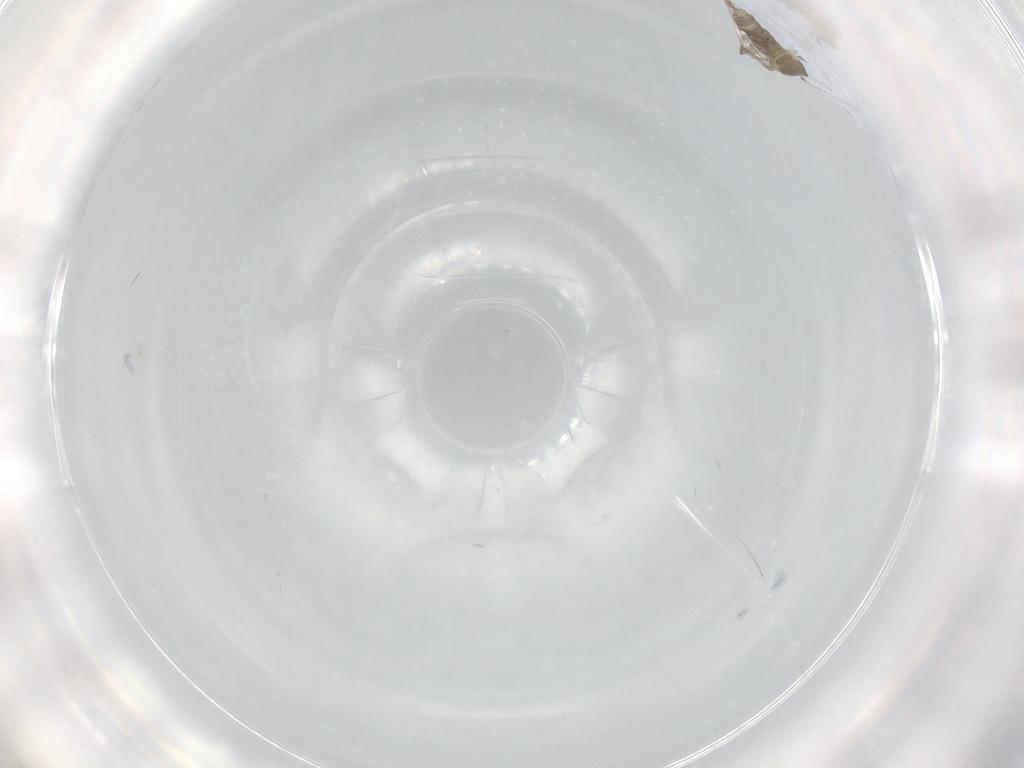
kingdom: Animalia
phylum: Arthropoda
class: Insecta
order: Diptera
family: Cecidomyiidae
